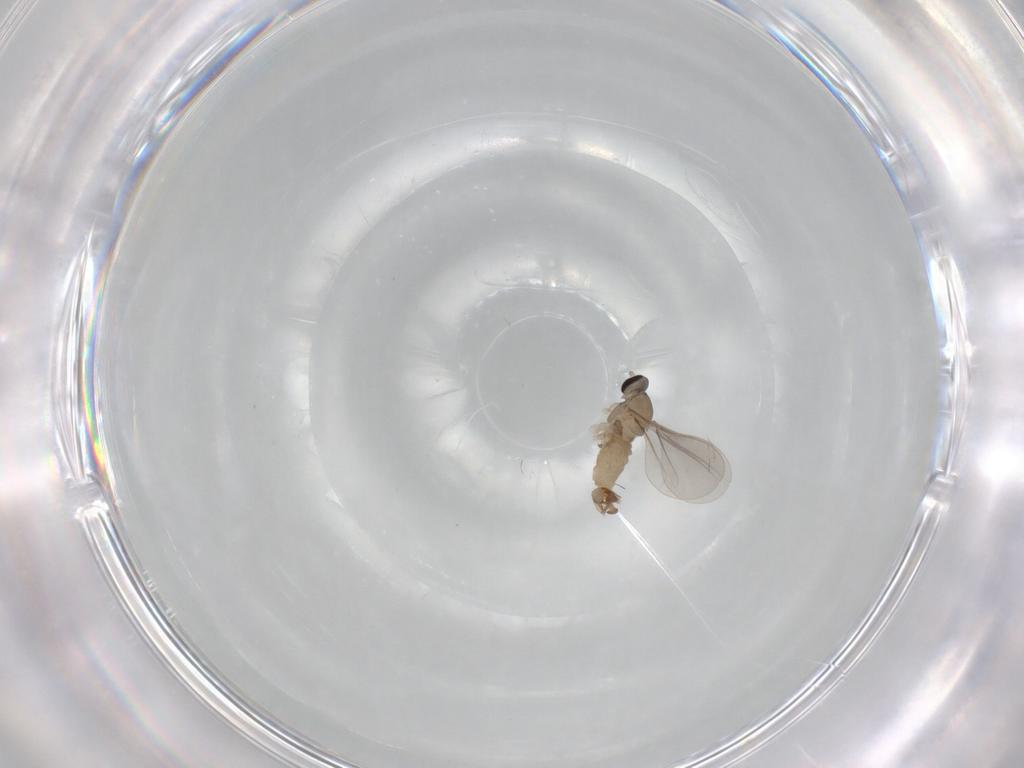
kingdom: Animalia
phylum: Arthropoda
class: Insecta
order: Diptera
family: Cecidomyiidae
